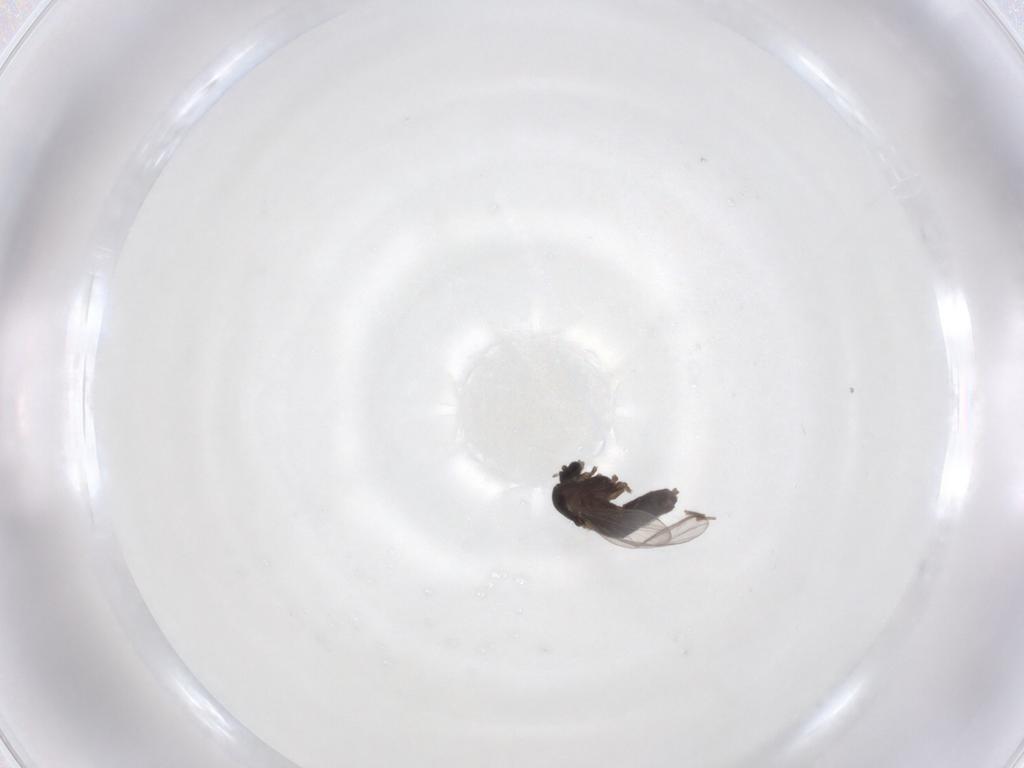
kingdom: Animalia
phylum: Arthropoda
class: Insecta
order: Diptera
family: Chironomidae
